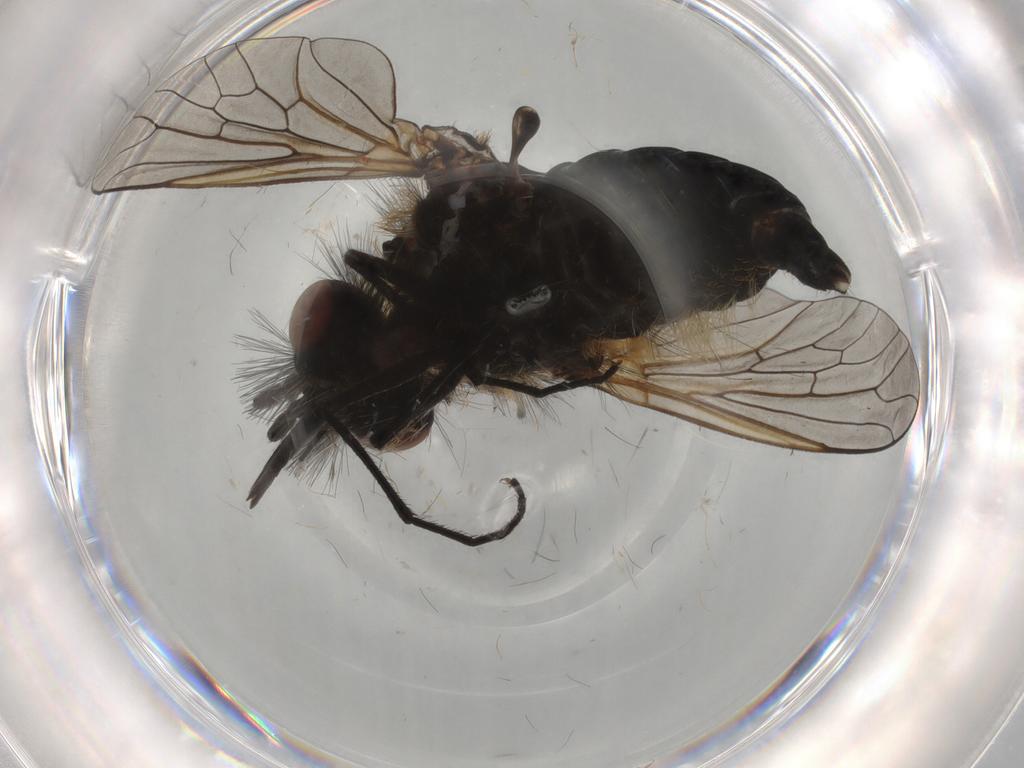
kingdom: Animalia
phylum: Arthropoda
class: Insecta
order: Diptera
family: Bombyliidae
